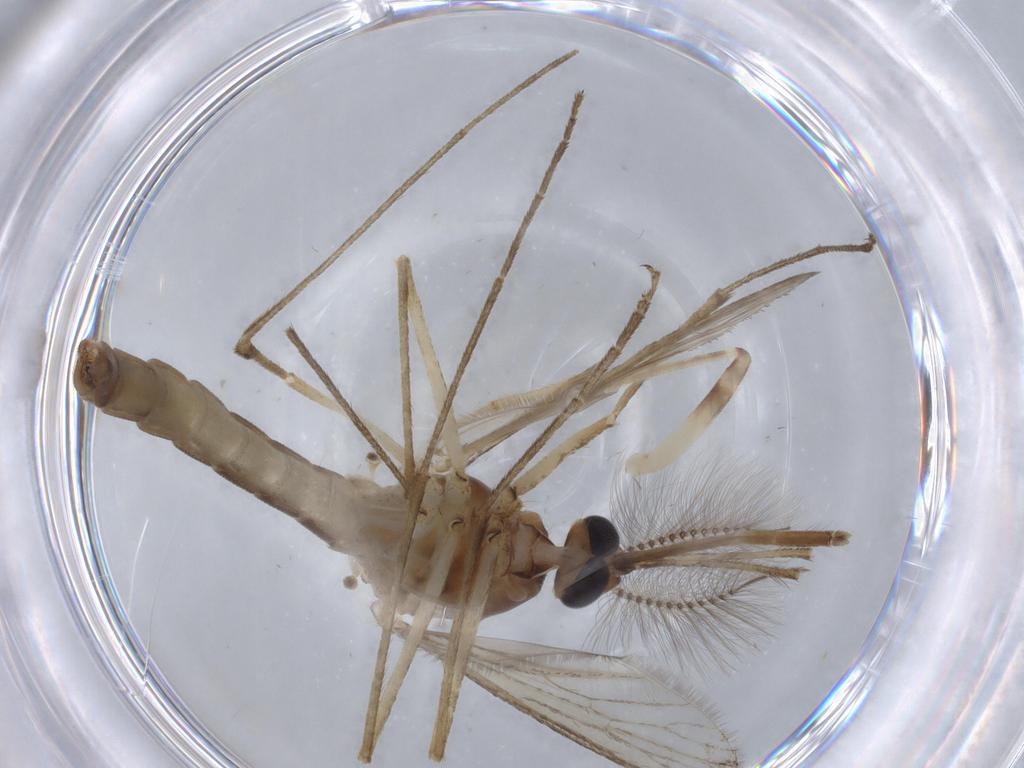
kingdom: Animalia
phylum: Arthropoda
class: Insecta
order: Diptera
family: Culicidae
